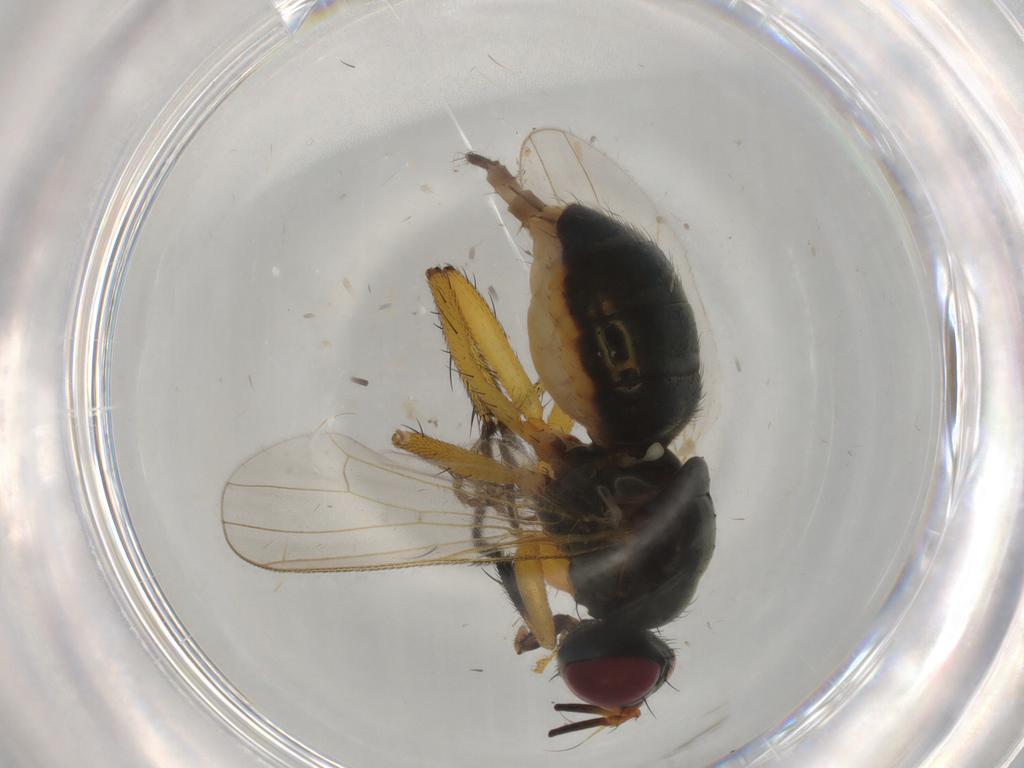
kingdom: Animalia
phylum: Arthropoda
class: Insecta
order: Diptera
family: Muscidae
